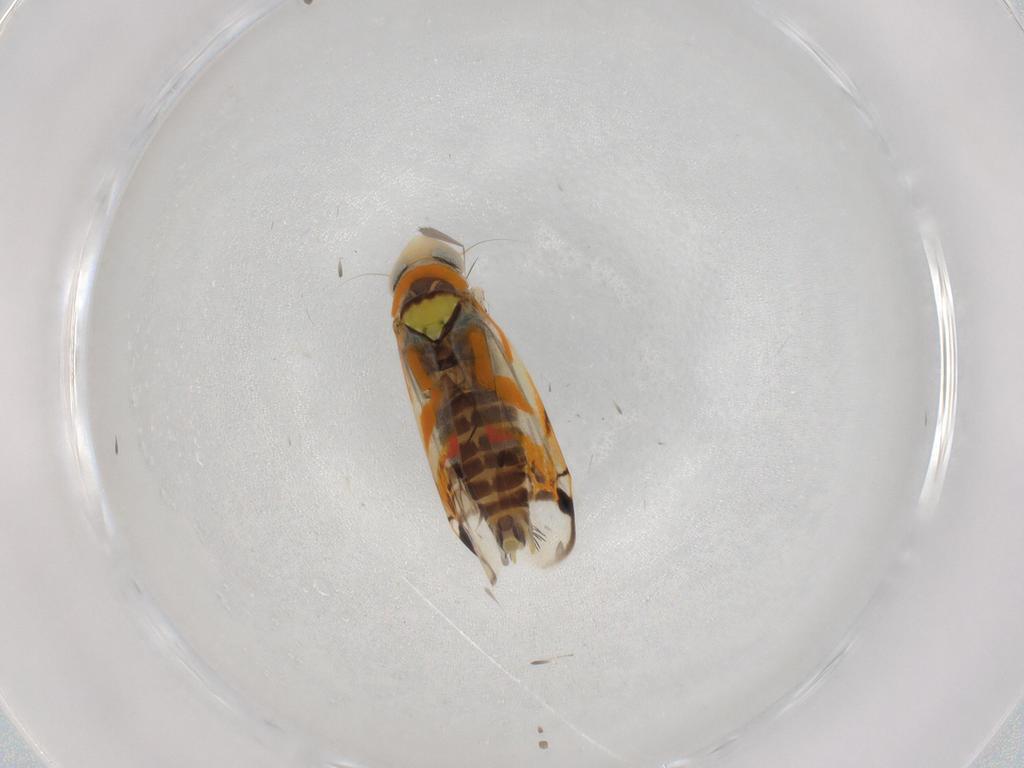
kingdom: Animalia
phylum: Arthropoda
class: Insecta
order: Hemiptera
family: Cicadellidae
